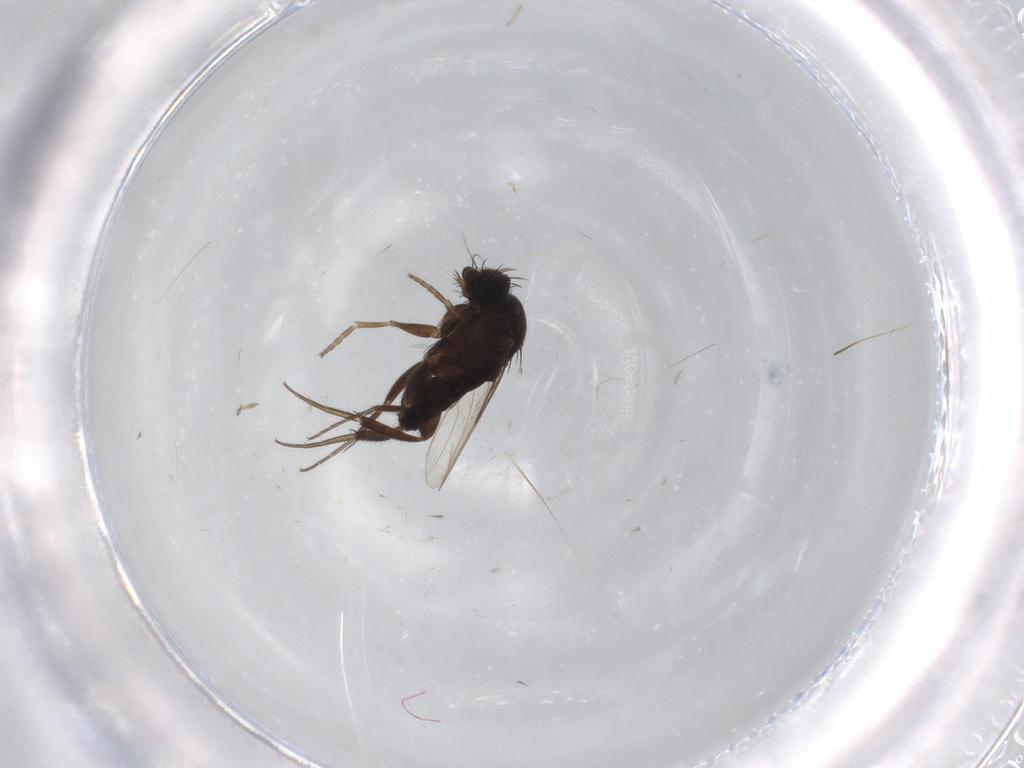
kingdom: Animalia
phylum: Arthropoda
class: Insecta
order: Diptera
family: Phoridae
